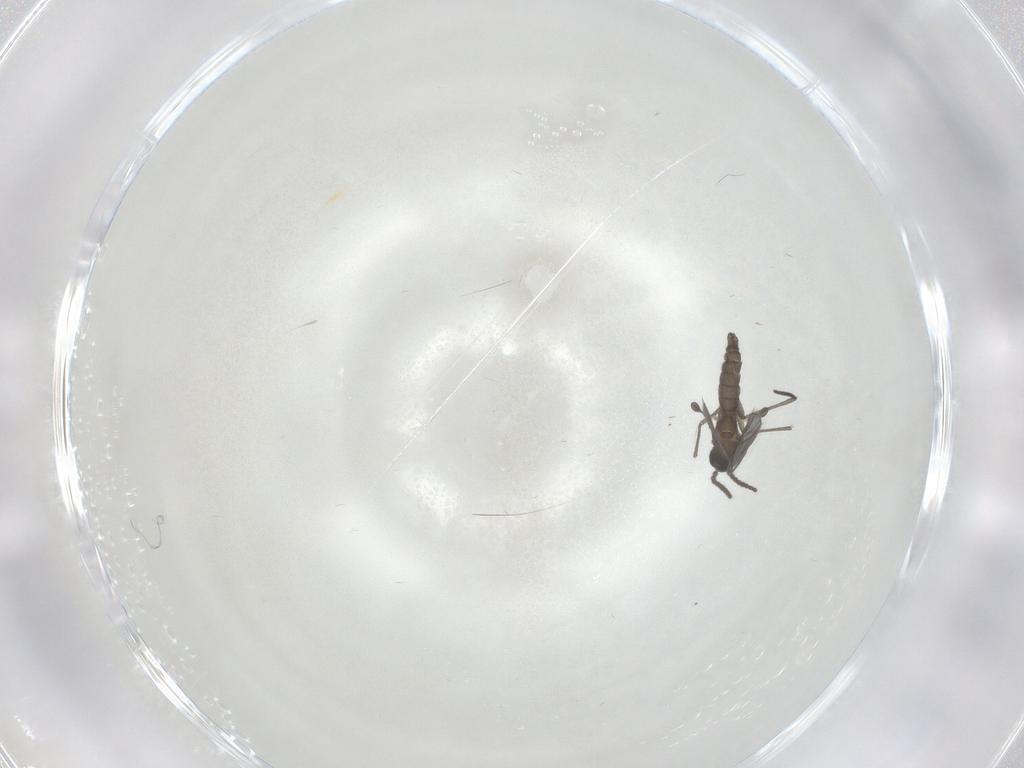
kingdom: Animalia
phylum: Arthropoda
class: Insecta
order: Diptera
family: Limoniidae
